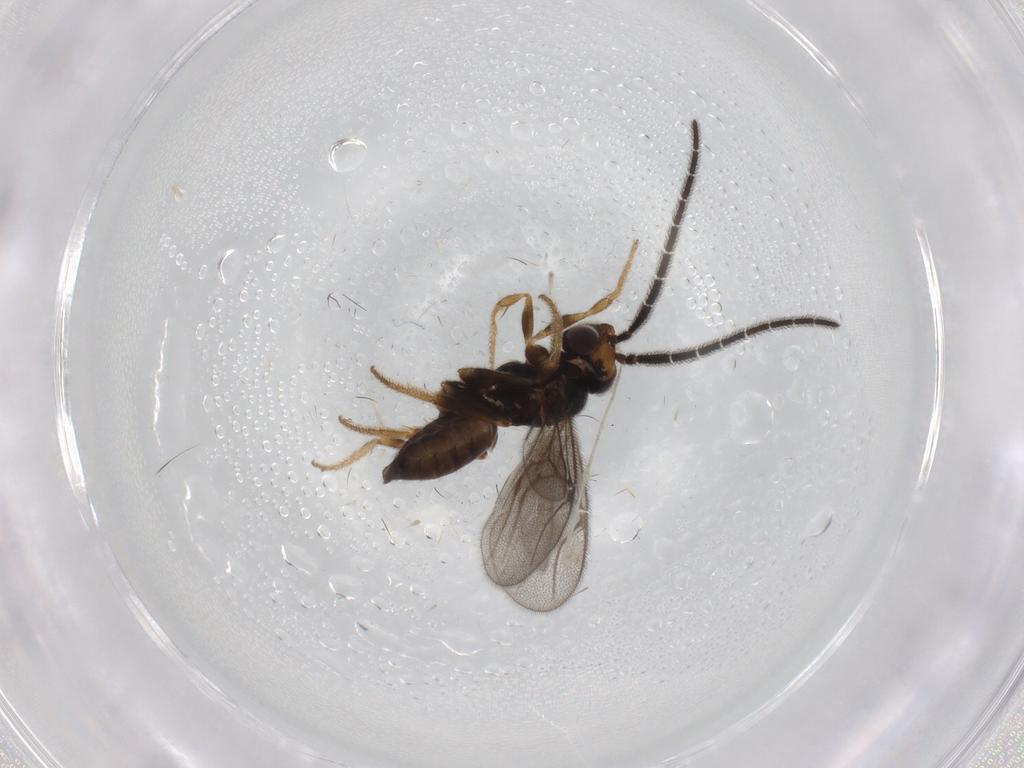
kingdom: Animalia
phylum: Arthropoda
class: Insecta
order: Hymenoptera
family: Dryinidae
